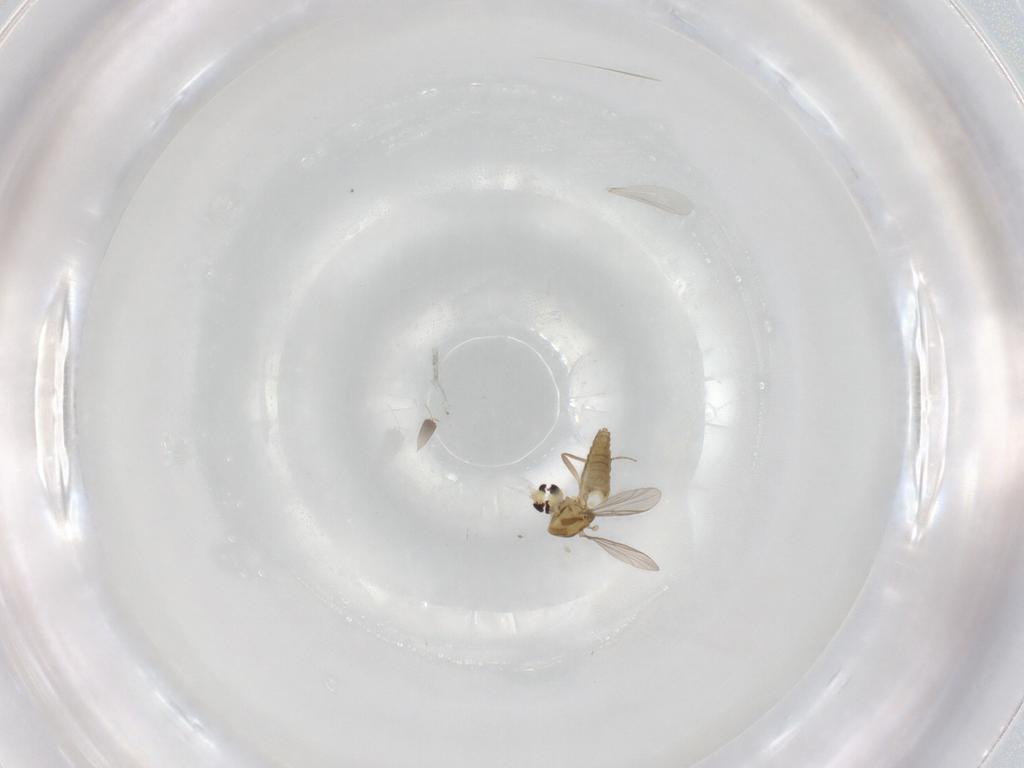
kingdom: Animalia
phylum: Arthropoda
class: Insecta
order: Diptera
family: Chironomidae
